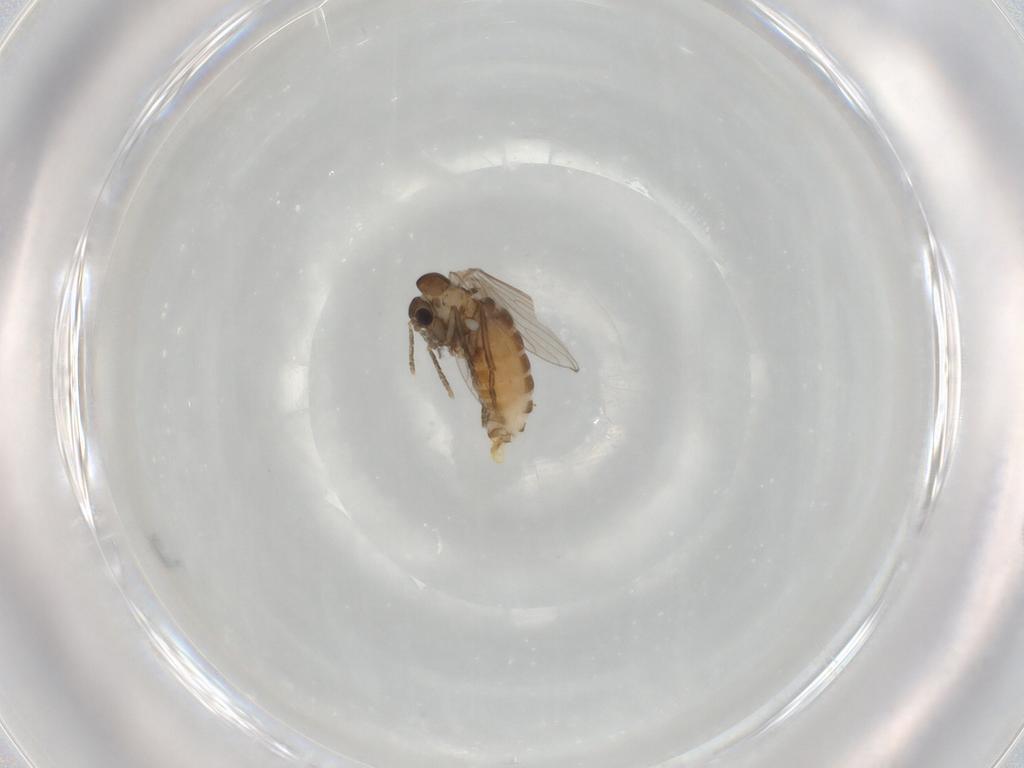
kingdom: Animalia
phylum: Arthropoda
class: Insecta
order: Diptera
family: Psychodidae
